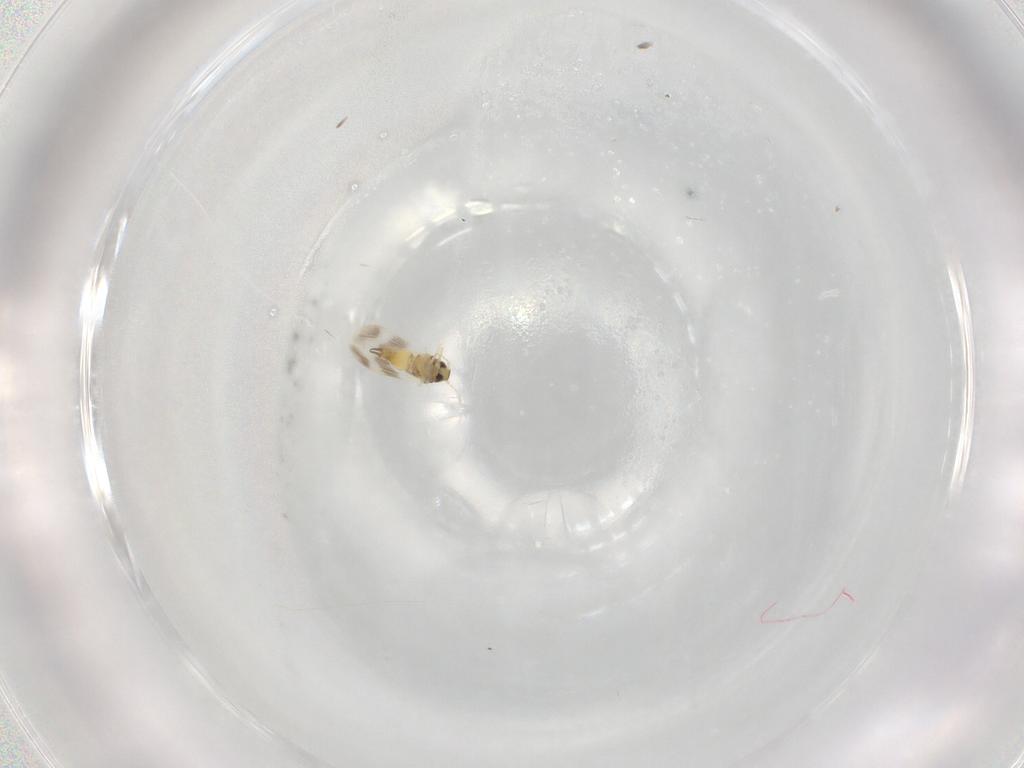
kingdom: Animalia
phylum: Arthropoda
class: Insecta
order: Hemiptera
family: Aleyrodidae
